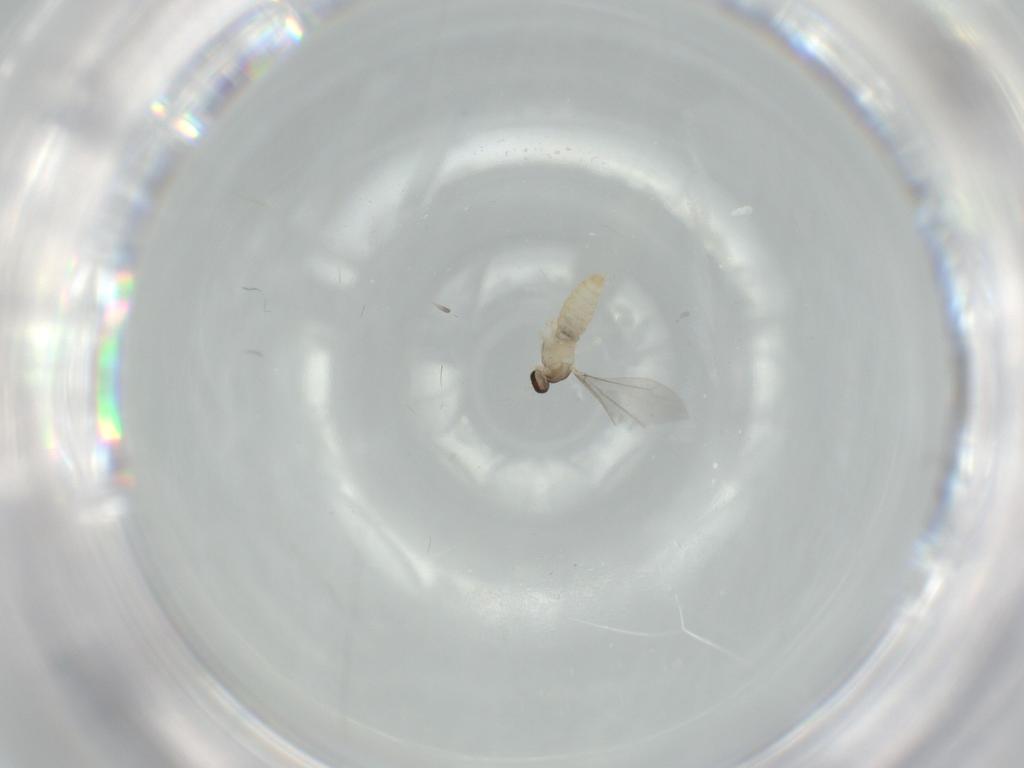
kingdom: Animalia
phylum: Arthropoda
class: Insecta
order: Diptera
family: Cecidomyiidae
